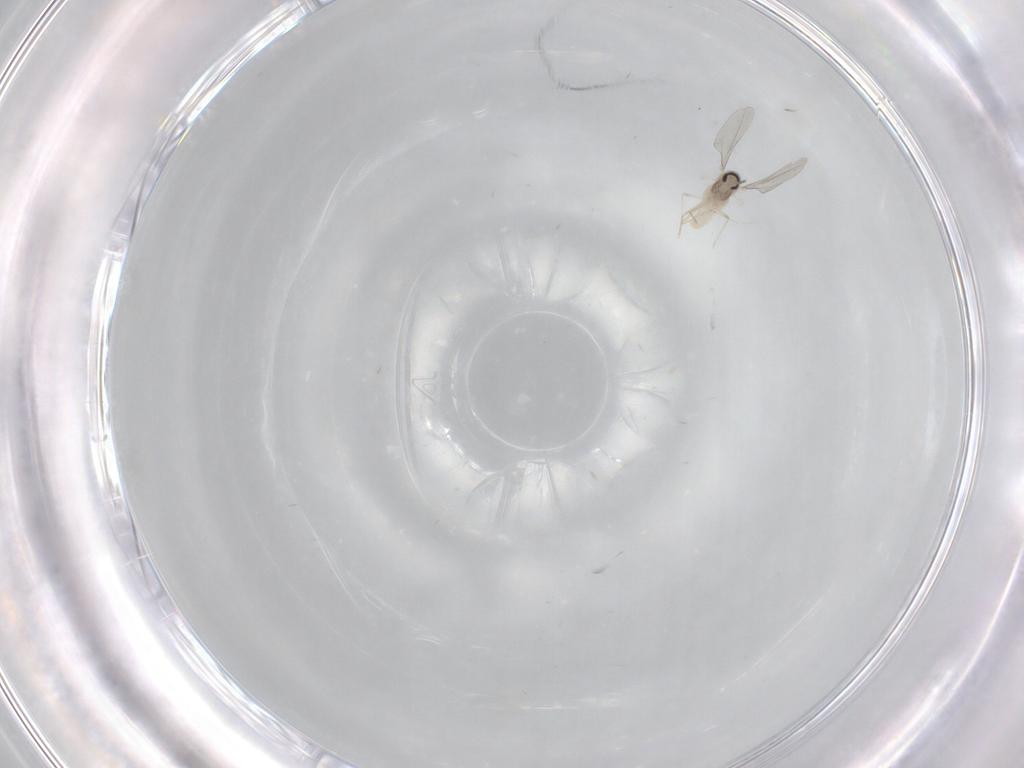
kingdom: Animalia
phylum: Arthropoda
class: Insecta
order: Diptera
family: Cecidomyiidae
